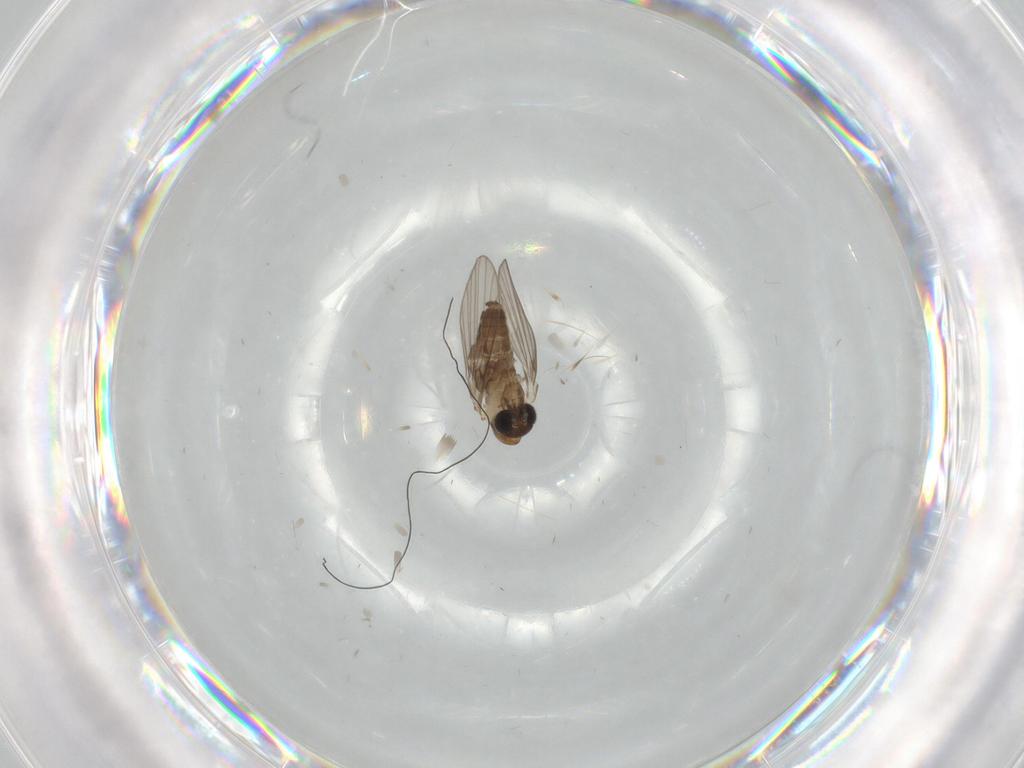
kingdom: Animalia
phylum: Arthropoda
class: Insecta
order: Diptera
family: Psychodidae
